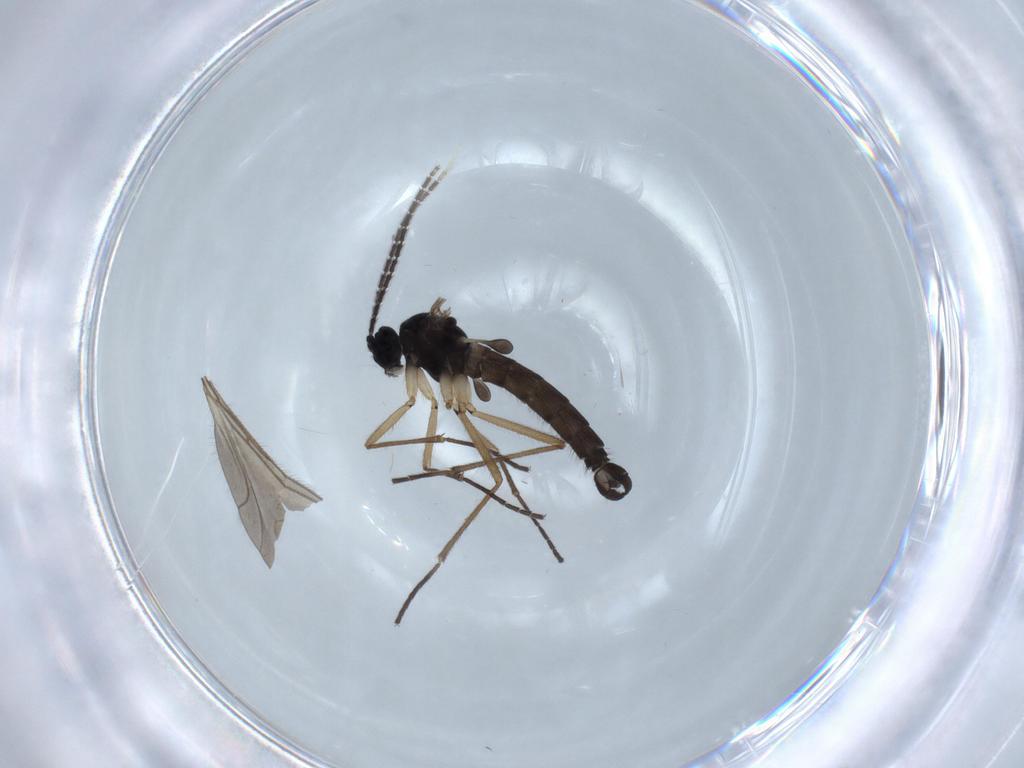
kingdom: Animalia
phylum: Arthropoda
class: Insecta
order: Diptera
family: Sciaridae
